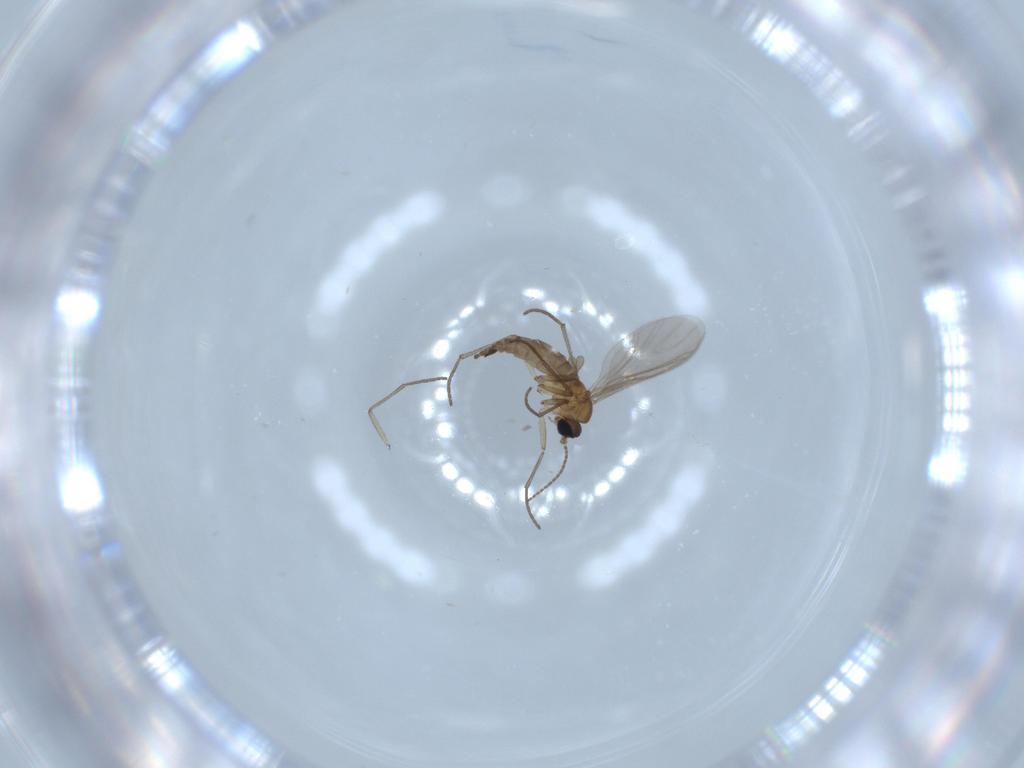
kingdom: Animalia
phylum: Arthropoda
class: Insecta
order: Diptera
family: Sciaridae
